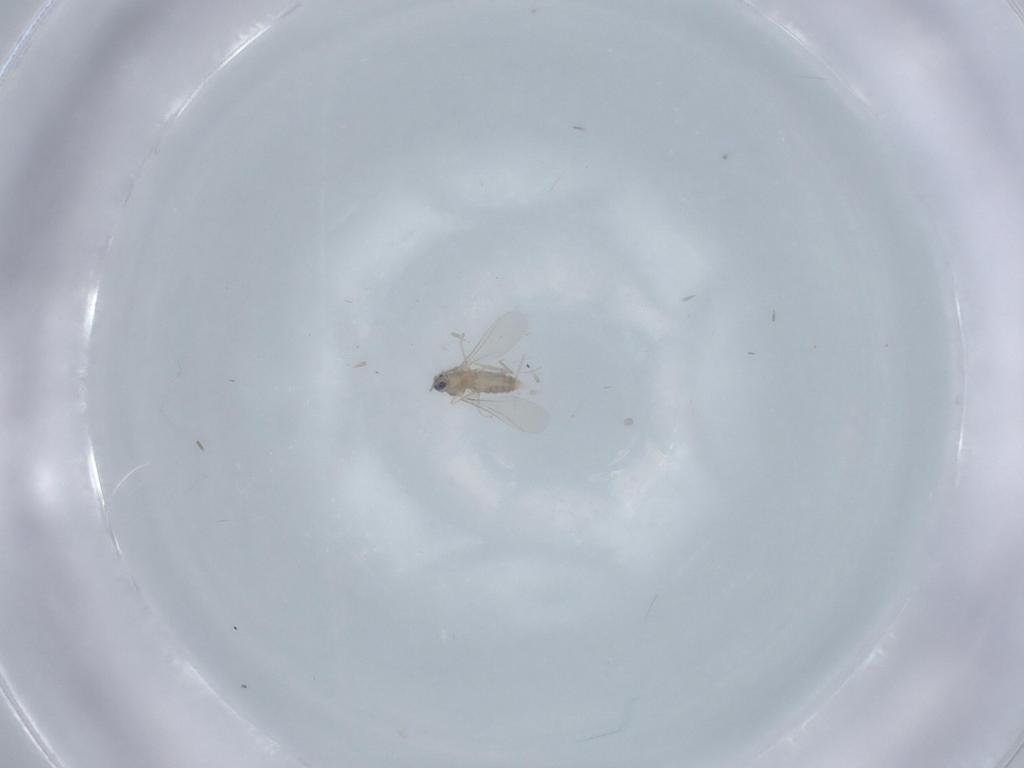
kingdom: Animalia
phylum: Arthropoda
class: Insecta
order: Diptera
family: Cecidomyiidae
